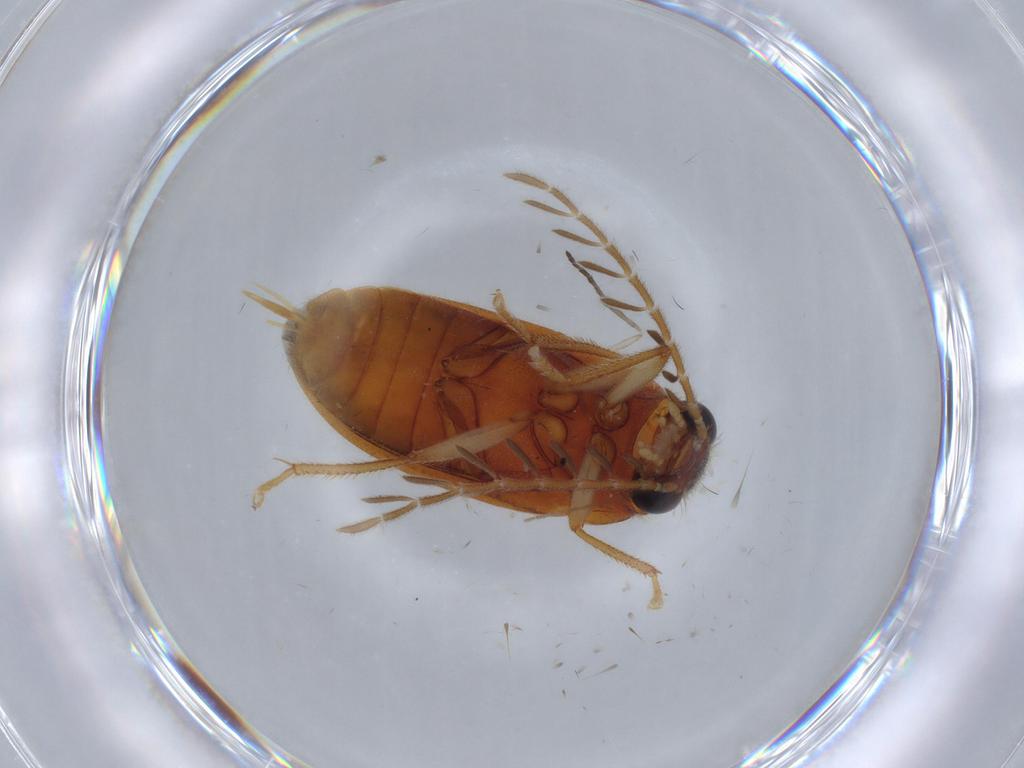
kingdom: Animalia
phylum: Arthropoda
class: Insecta
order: Coleoptera
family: Ptilodactylidae
